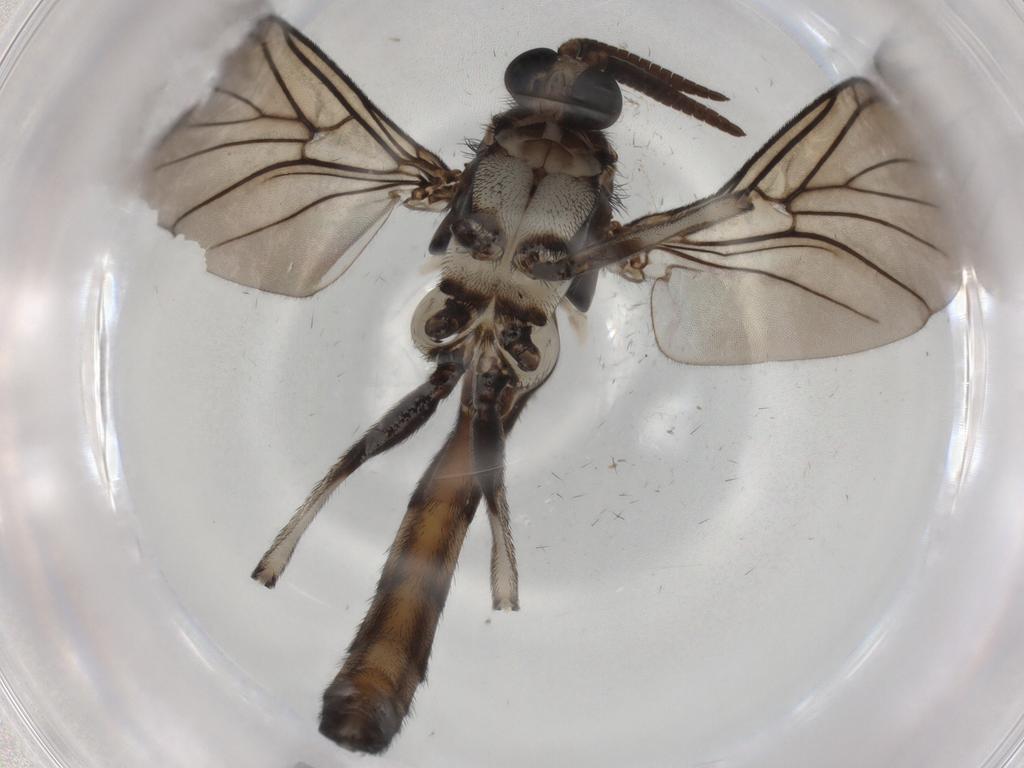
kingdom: Animalia
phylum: Arthropoda
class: Insecta
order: Diptera
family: Keroplatidae
